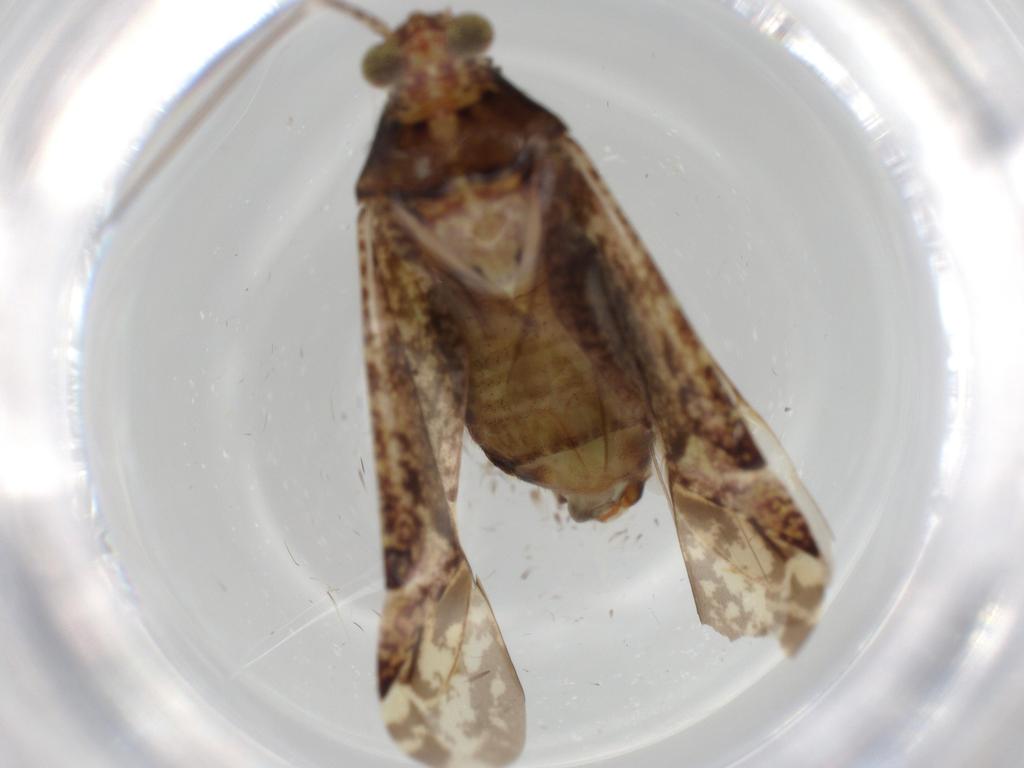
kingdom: Animalia
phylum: Arthropoda
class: Insecta
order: Hemiptera
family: Miridae
